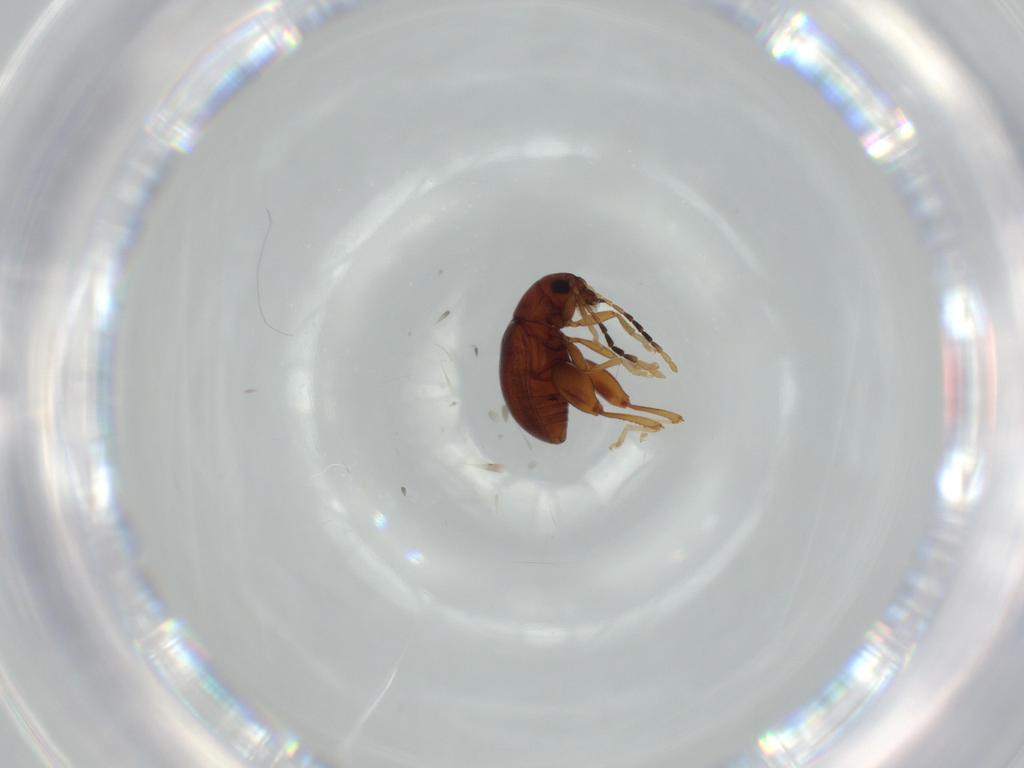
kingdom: Animalia
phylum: Arthropoda
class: Insecta
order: Coleoptera
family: Chrysomelidae
